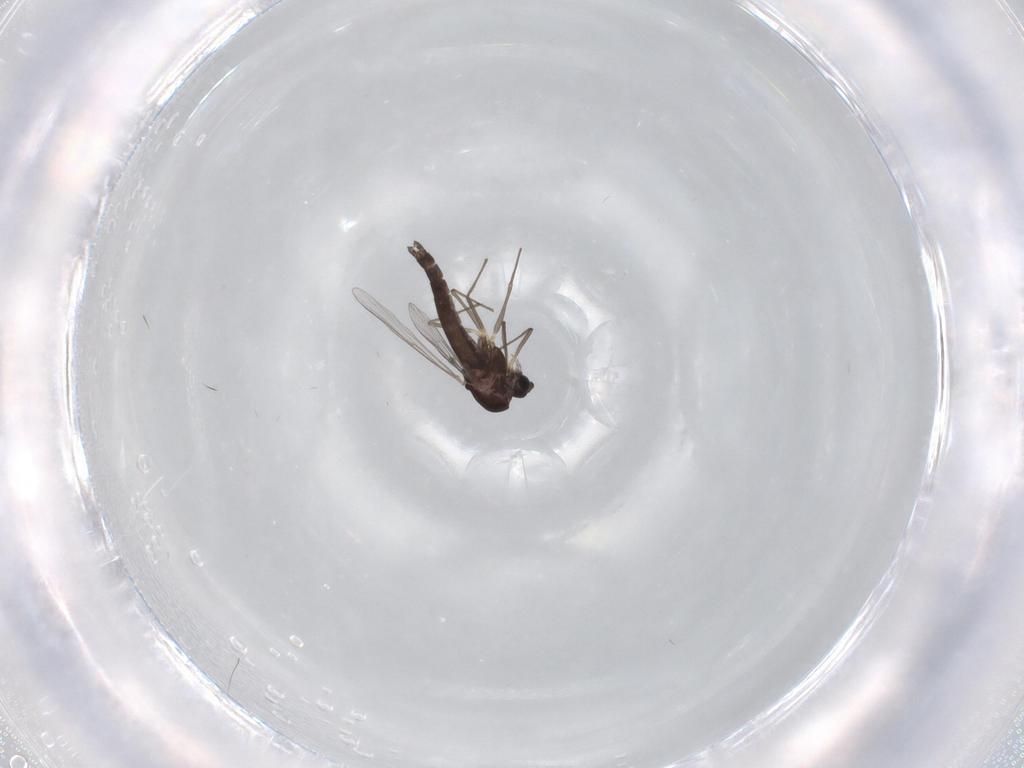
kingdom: Animalia
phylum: Arthropoda
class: Insecta
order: Diptera
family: Chironomidae
